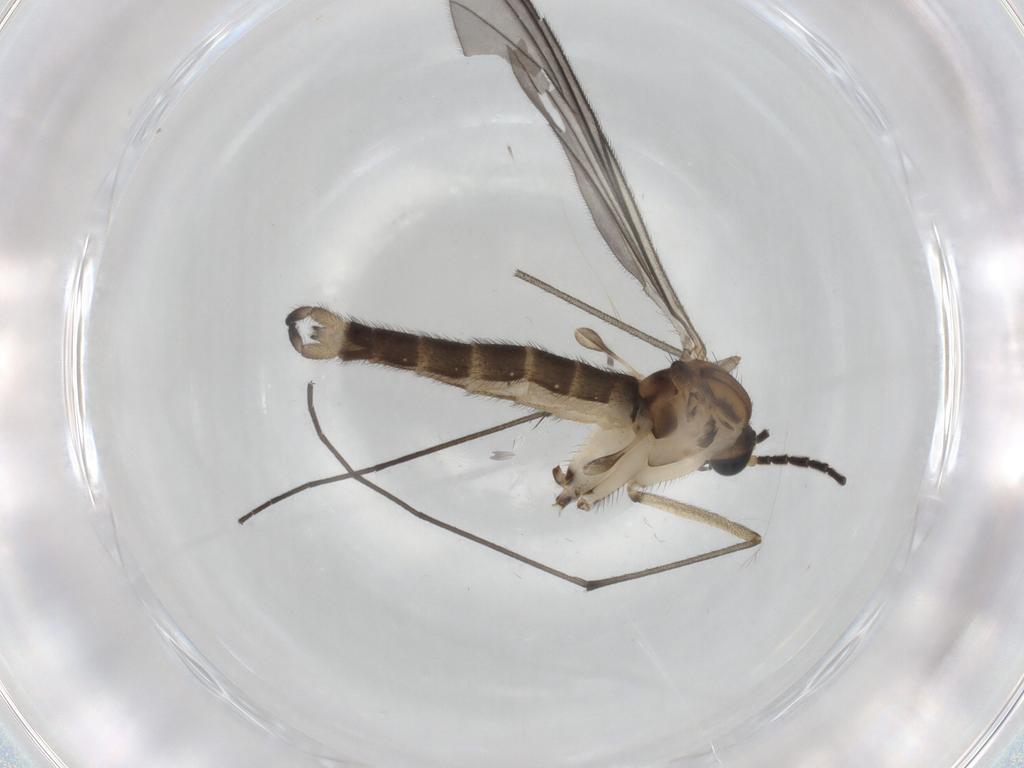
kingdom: Animalia
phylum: Arthropoda
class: Insecta
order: Diptera
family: Sciaridae
